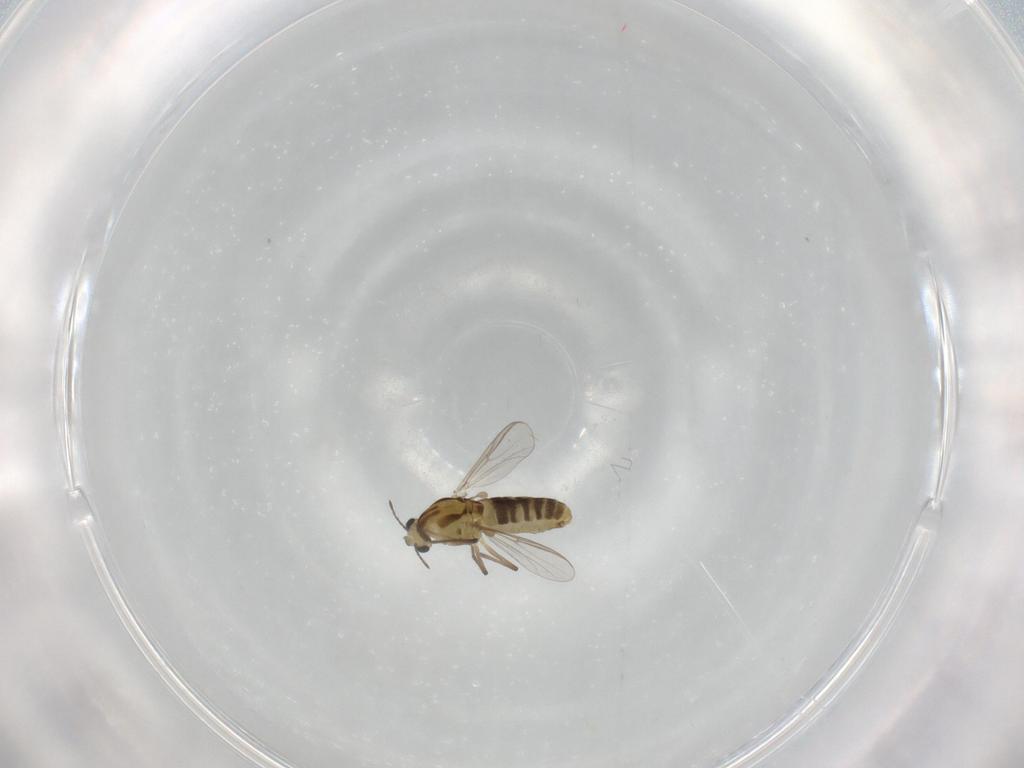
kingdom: Animalia
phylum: Arthropoda
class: Insecta
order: Diptera
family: Chironomidae
